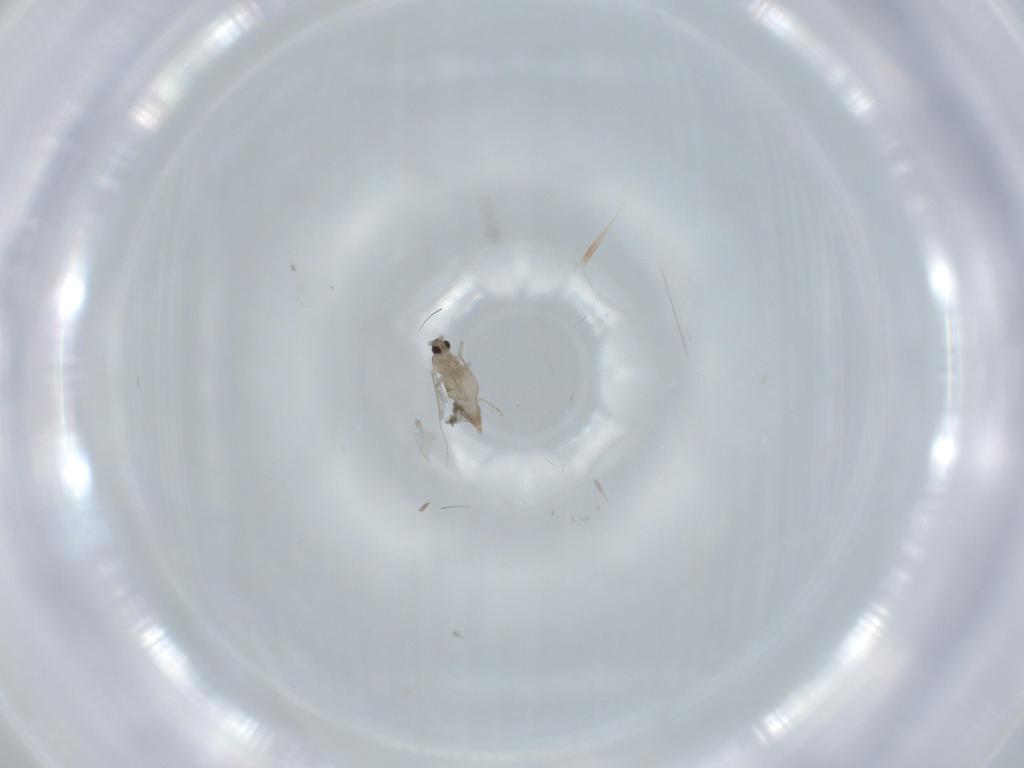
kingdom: Animalia
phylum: Arthropoda
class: Insecta
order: Diptera
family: Cecidomyiidae
